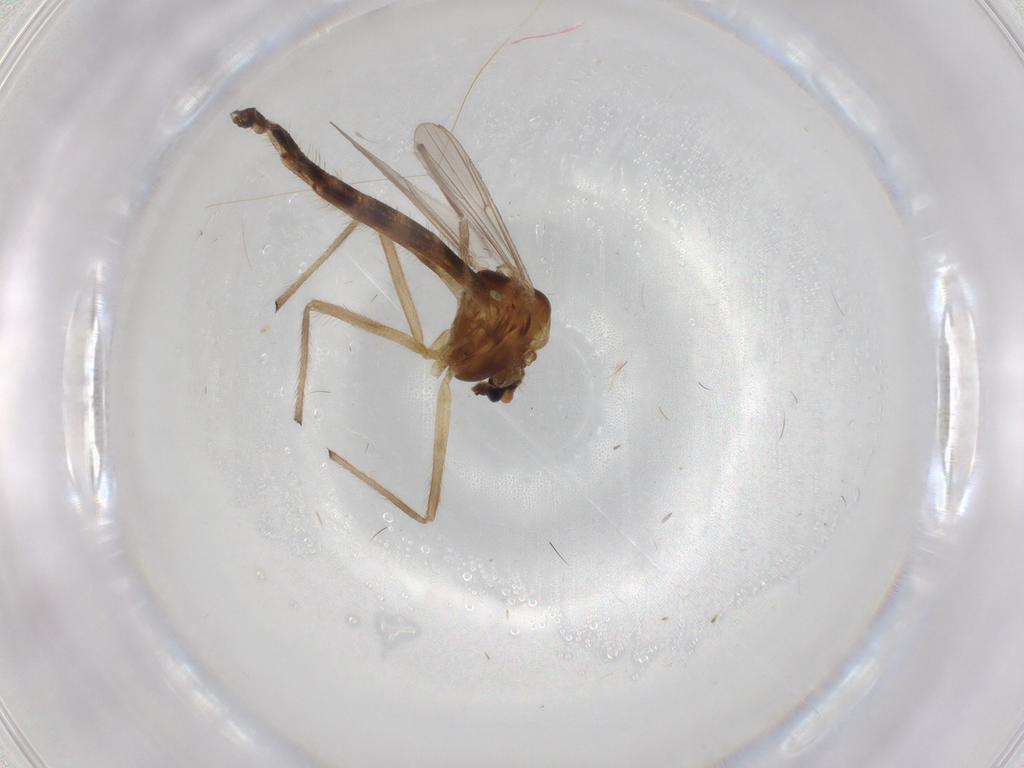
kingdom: Animalia
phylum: Arthropoda
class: Insecta
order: Diptera
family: Chironomidae
